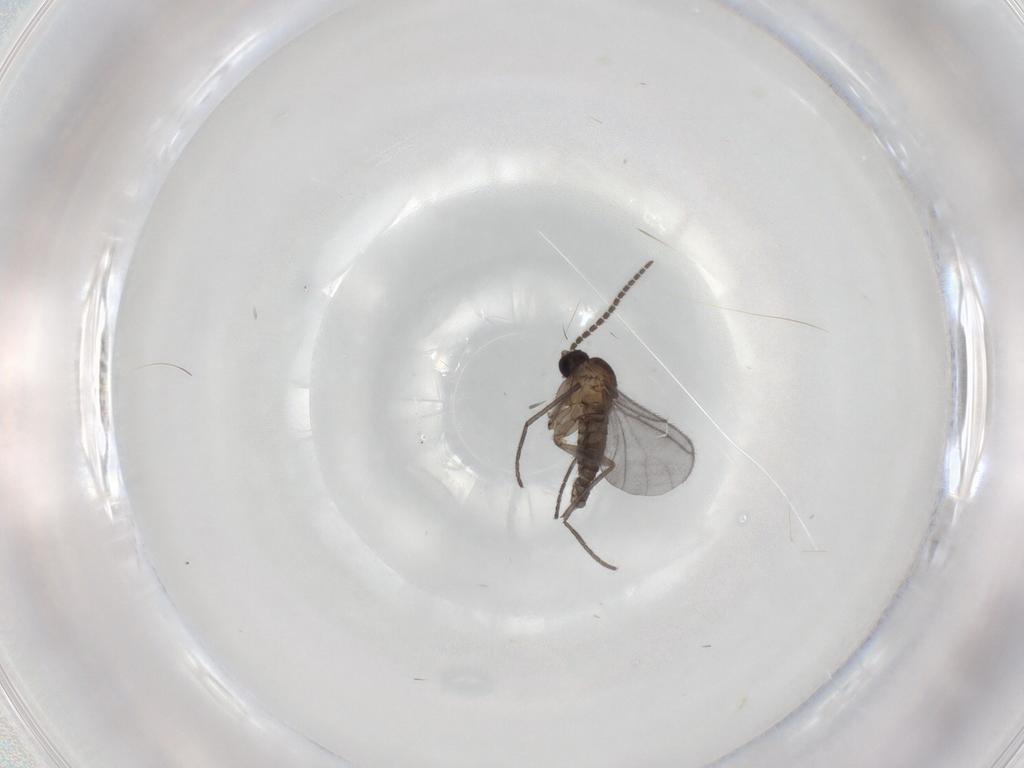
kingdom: Animalia
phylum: Arthropoda
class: Insecta
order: Diptera
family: Sciaridae
